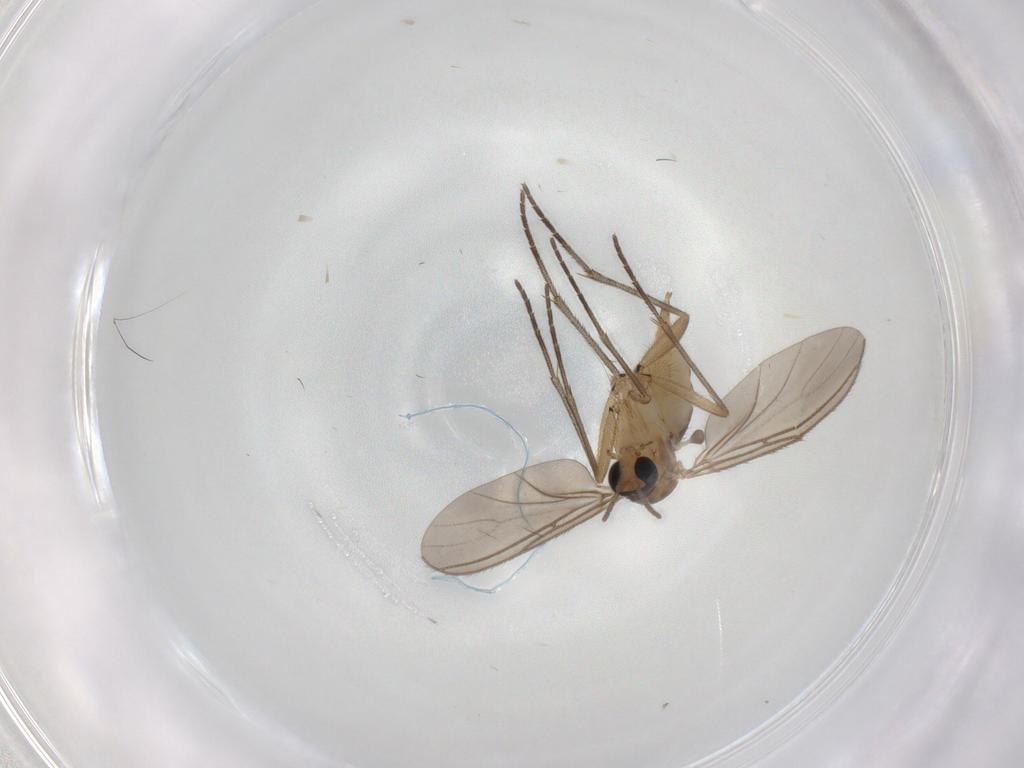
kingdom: Animalia
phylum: Arthropoda
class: Insecta
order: Diptera
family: Sciaridae
